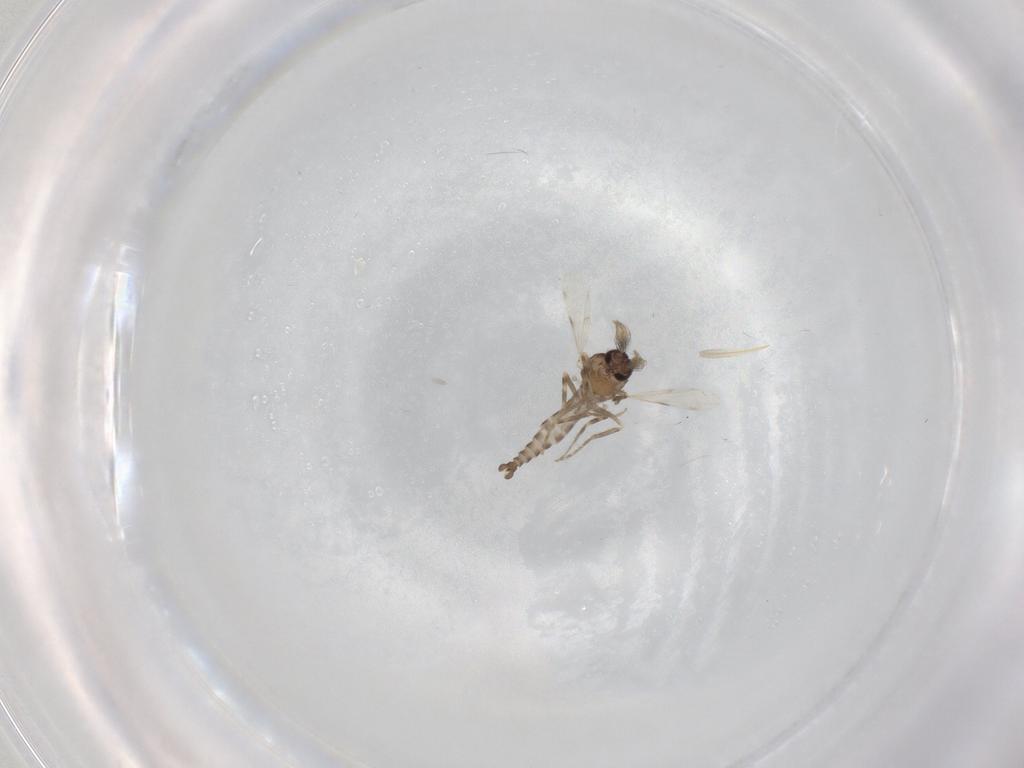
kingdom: Animalia
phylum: Arthropoda
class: Insecta
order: Diptera
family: Ceratopogonidae
